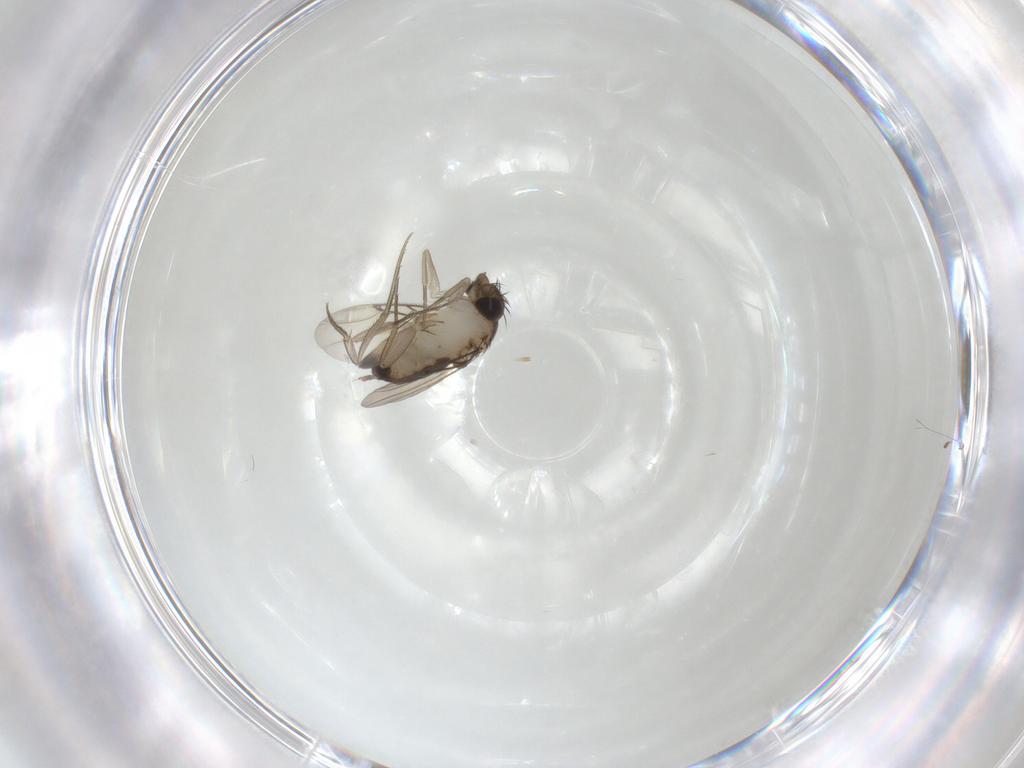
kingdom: Animalia
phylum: Arthropoda
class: Insecta
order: Diptera
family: Phoridae
